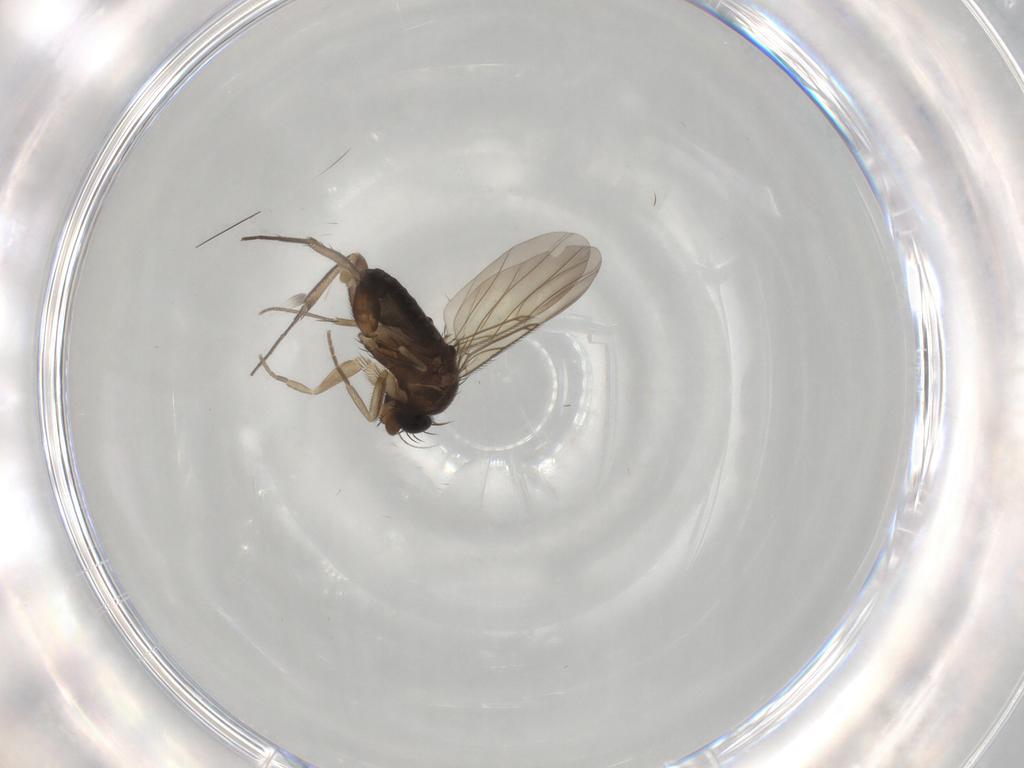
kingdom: Animalia
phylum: Arthropoda
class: Insecta
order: Diptera
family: Phoridae
